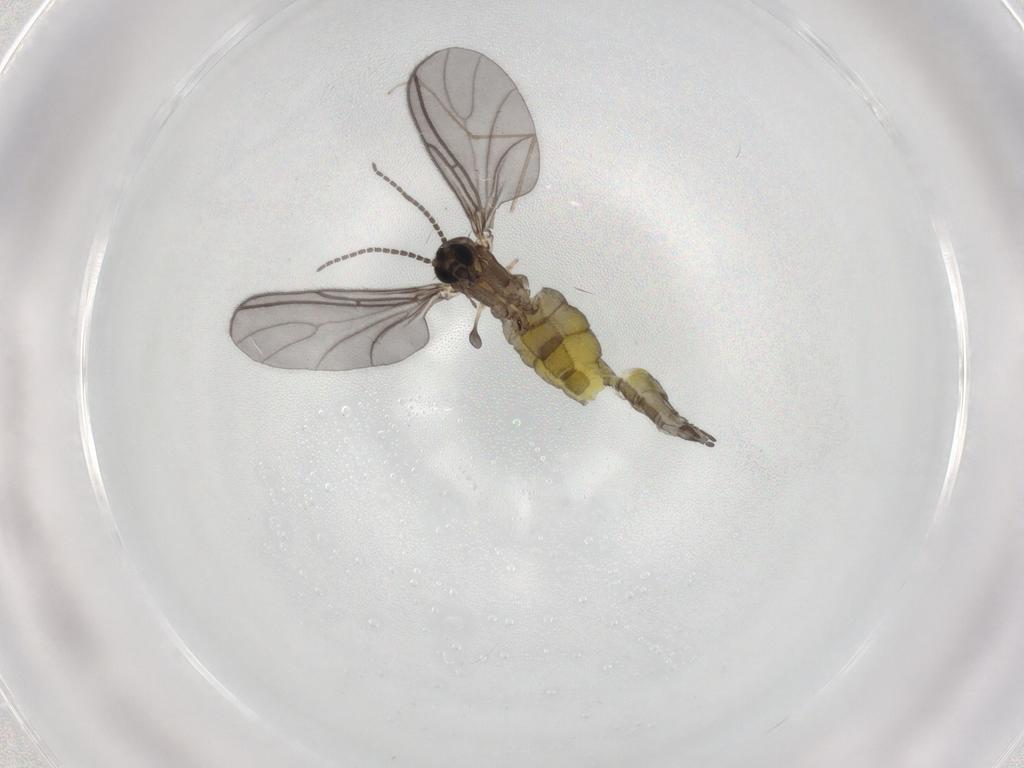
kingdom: Animalia
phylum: Arthropoda
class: Insecta
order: Diptera
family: Sciaridae
